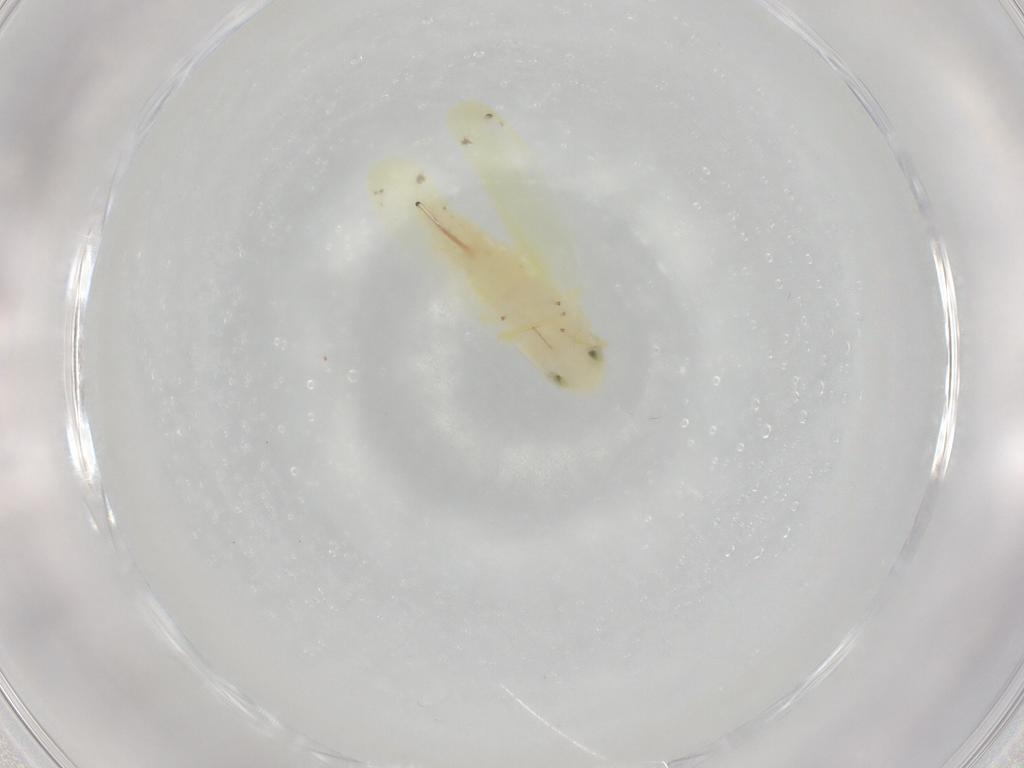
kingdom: Animalia
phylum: Arthropoda
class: Insecta
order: Hemiptera
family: Cicadellidae
